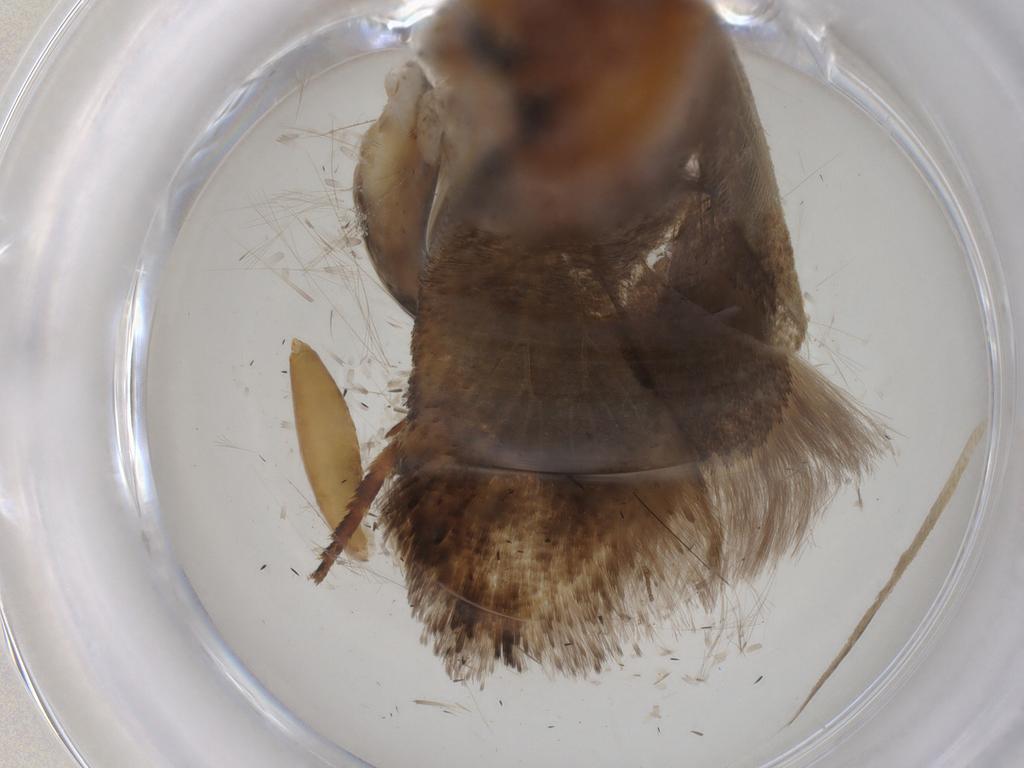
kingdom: Animalia
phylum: Arthropoda
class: Insecta
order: Lepidoptera
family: Gelechiidae
